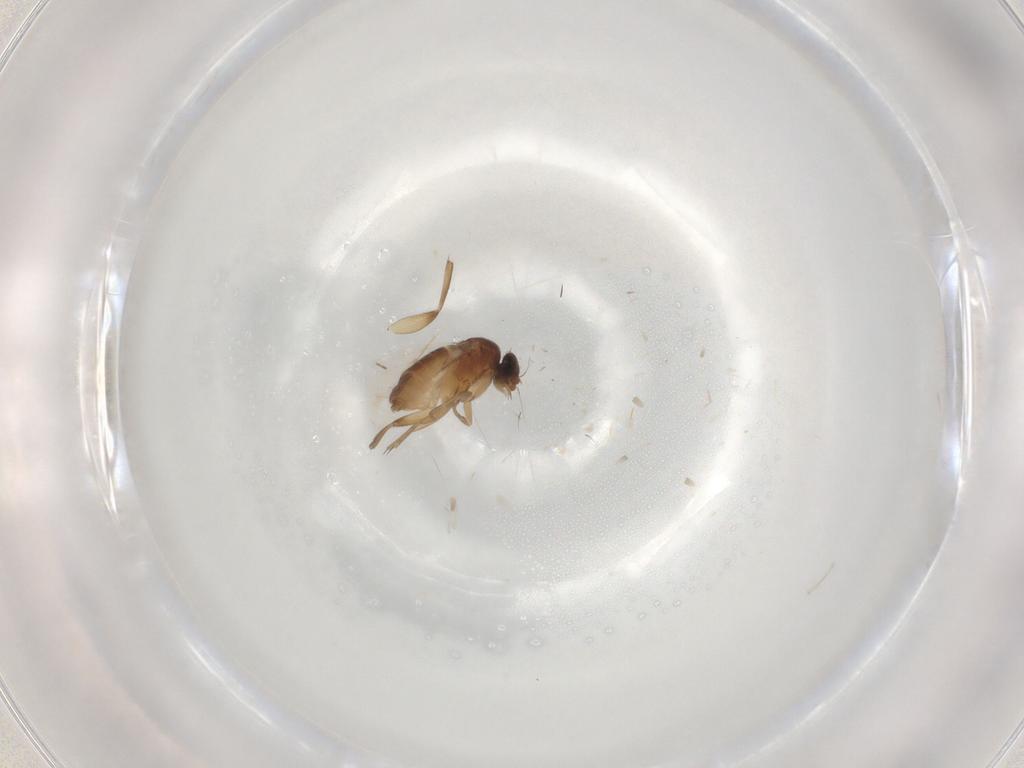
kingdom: Animalia
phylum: Arthropoda
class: Insecta
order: Diptera
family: Phoridae
